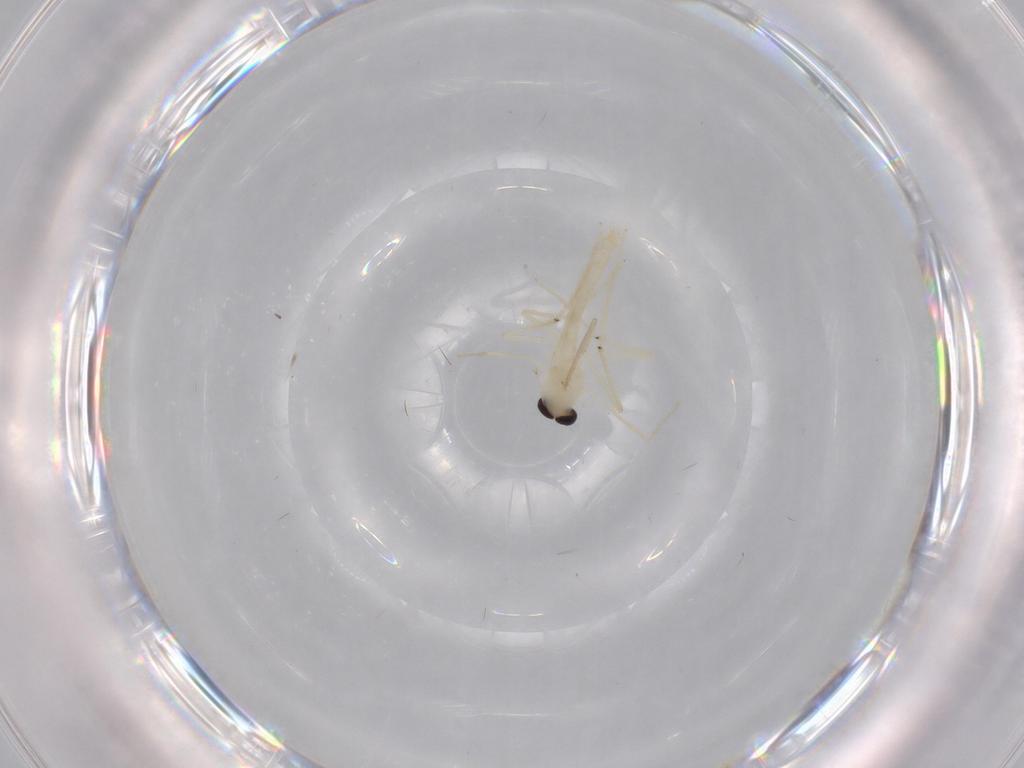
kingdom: Animalia
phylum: Arthropoda
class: Insecta
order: Diptera
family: Chironomidae
